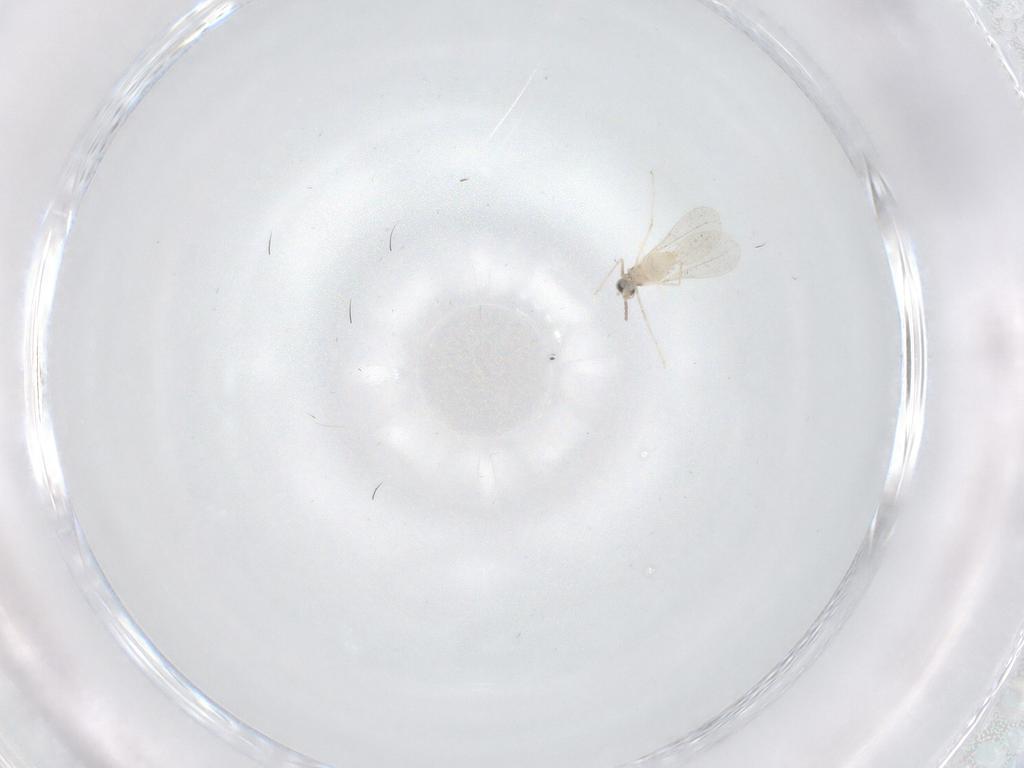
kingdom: Animalia
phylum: Arthropoda
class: Insecta
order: Diptera
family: Cecidomyiidae
